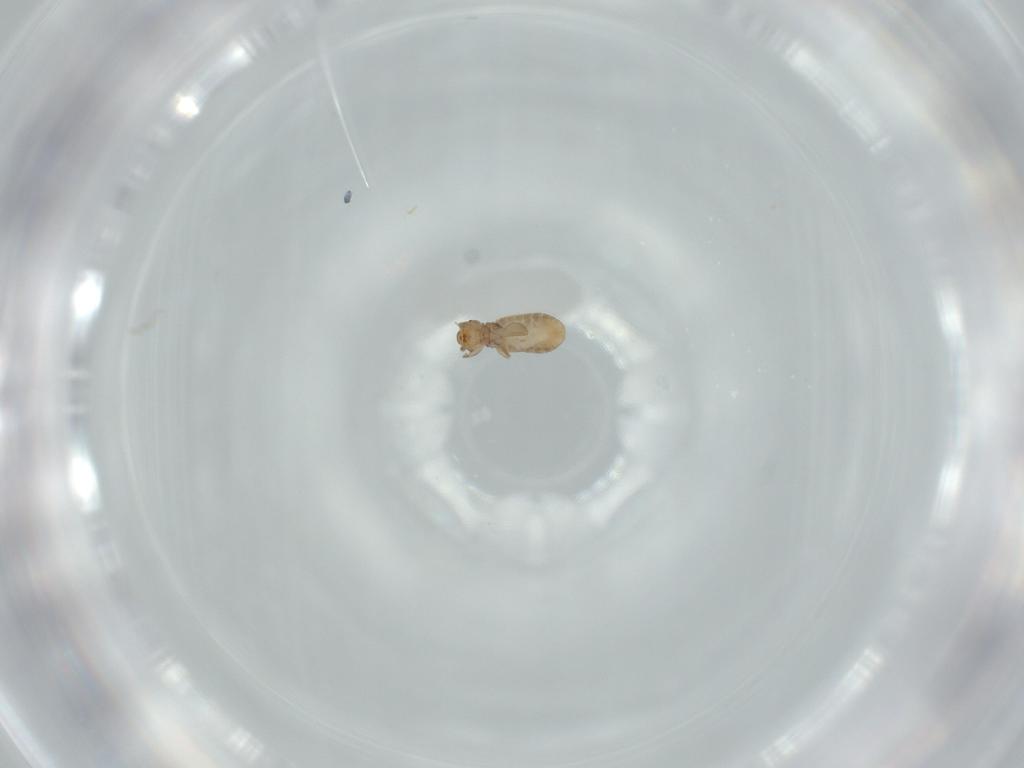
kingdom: Animalia
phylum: Arthropoda
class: Insecta
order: Psocodea
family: Liposcelididae
